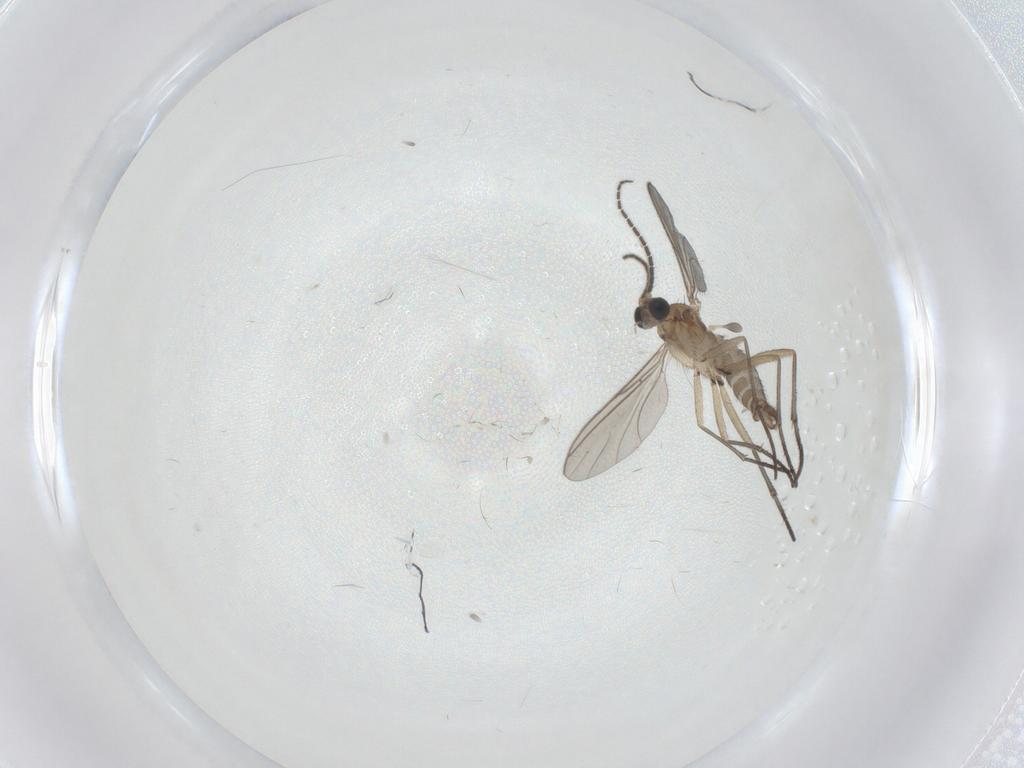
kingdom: Animalia
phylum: Arthropoda
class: Insecta
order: Diptera
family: Sciaridae
